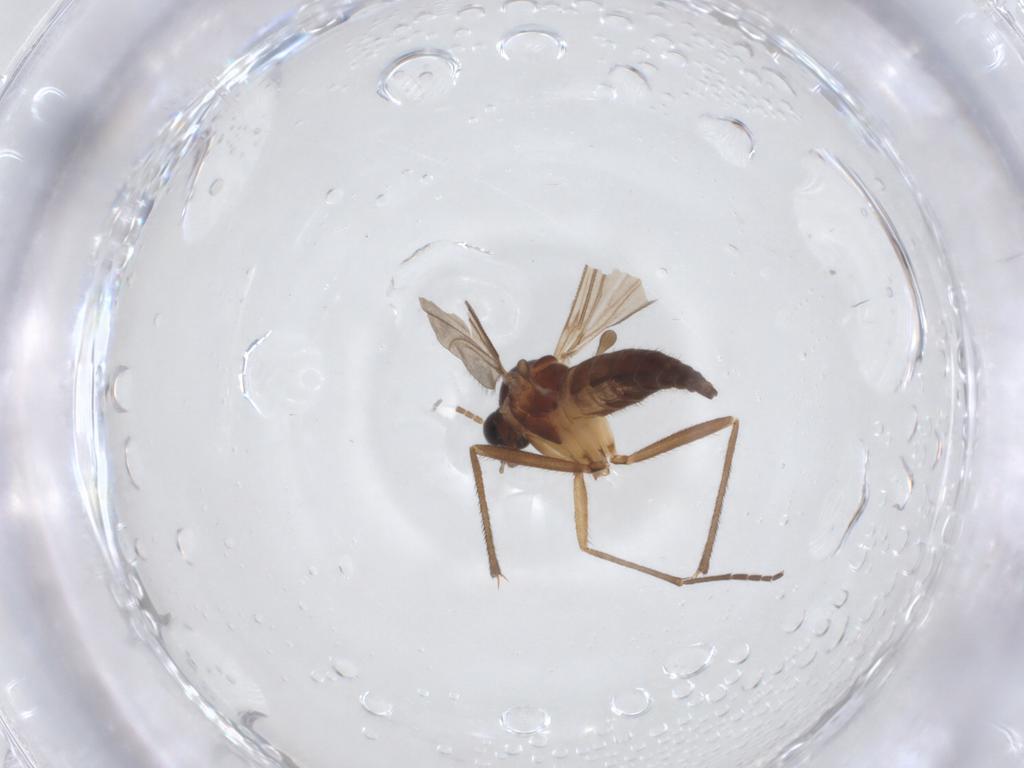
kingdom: Animalia
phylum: Arthropoda
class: Insecta
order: Diptera
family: Sciaridae
